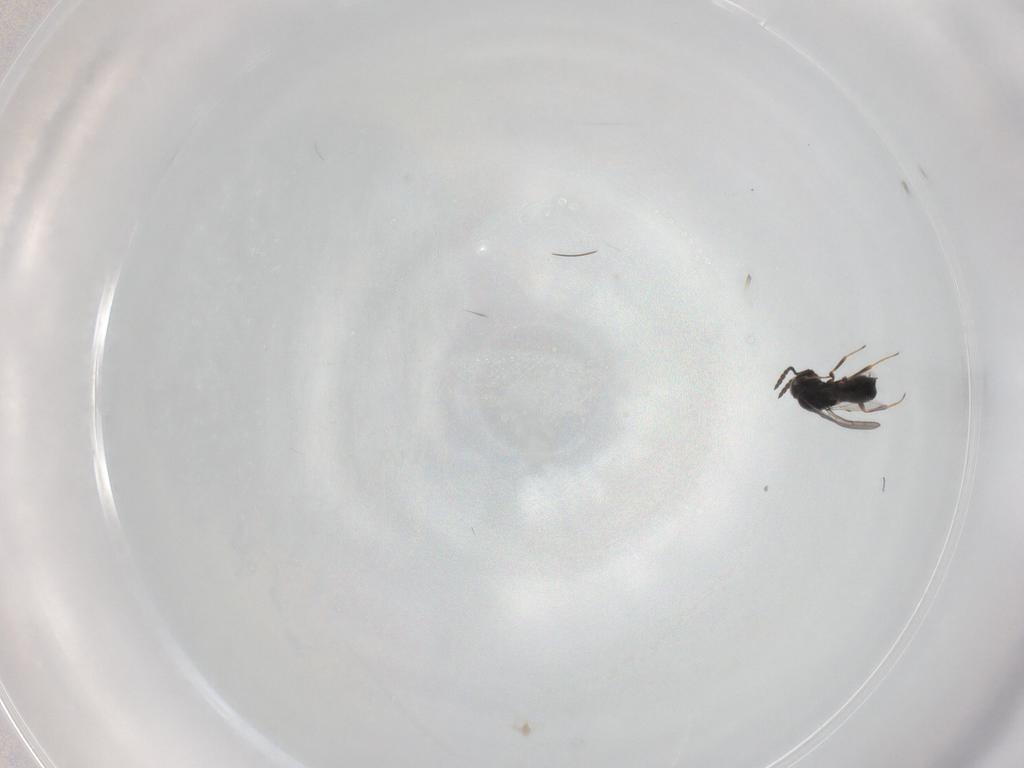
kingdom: Animalia
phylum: Arthropoda
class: Insecta
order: Hymenoptera
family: Scelionidae
